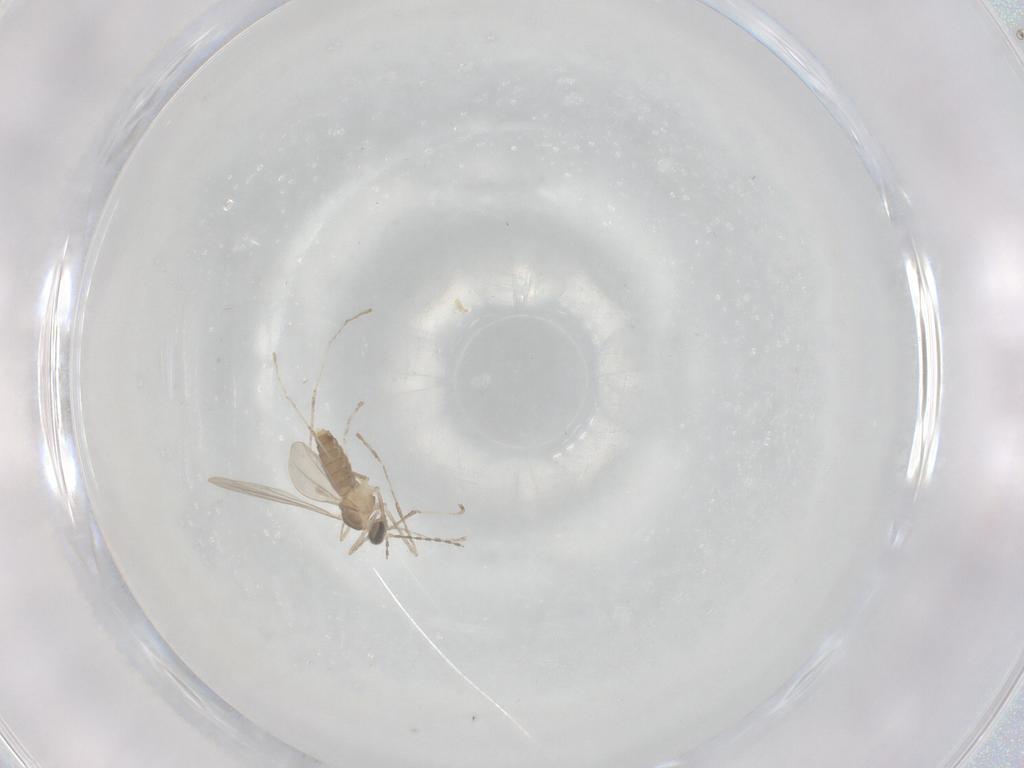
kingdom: Animalia
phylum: Arthropoda
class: Insecta
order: Diptera
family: Cecidomyiidae
